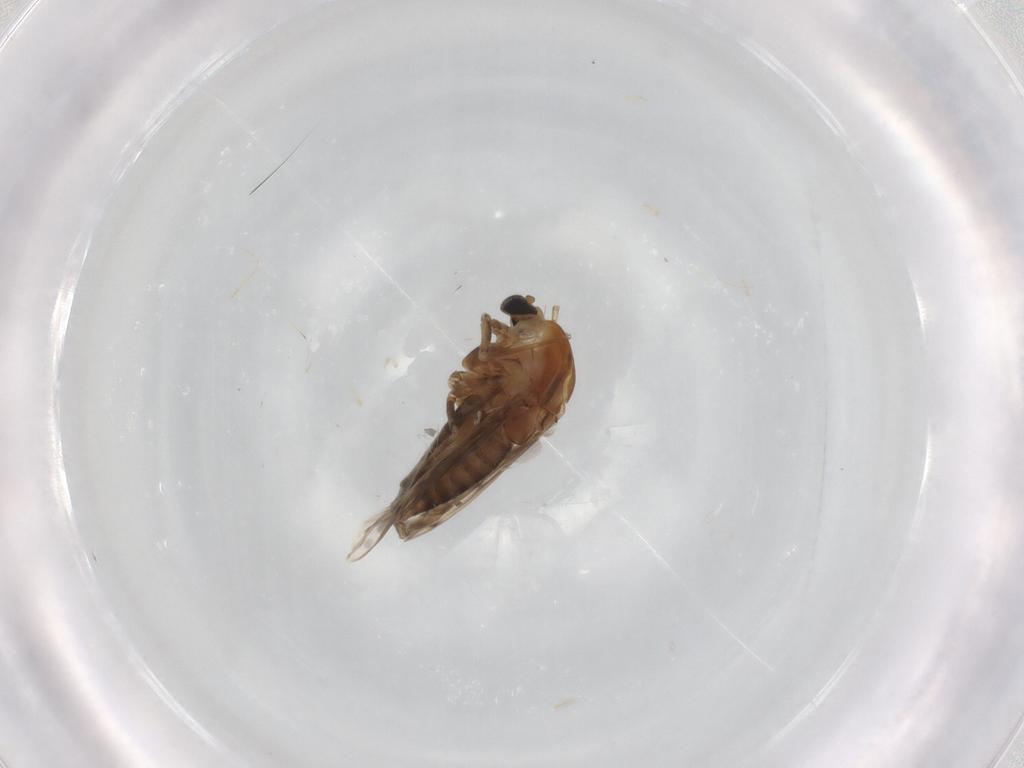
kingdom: Animalia
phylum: Arthropoda
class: Insecta
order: Diptera
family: Chironomidae
